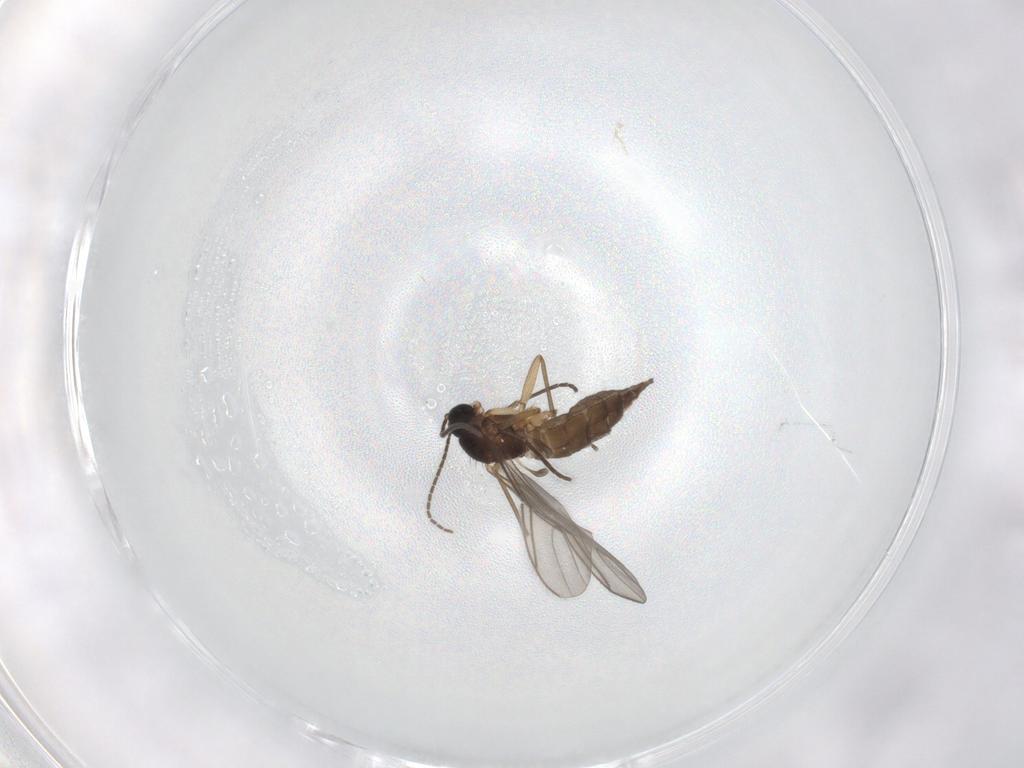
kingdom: Animalia
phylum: Arthropoda
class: Insecta
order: Diptera
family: Sciaridae
